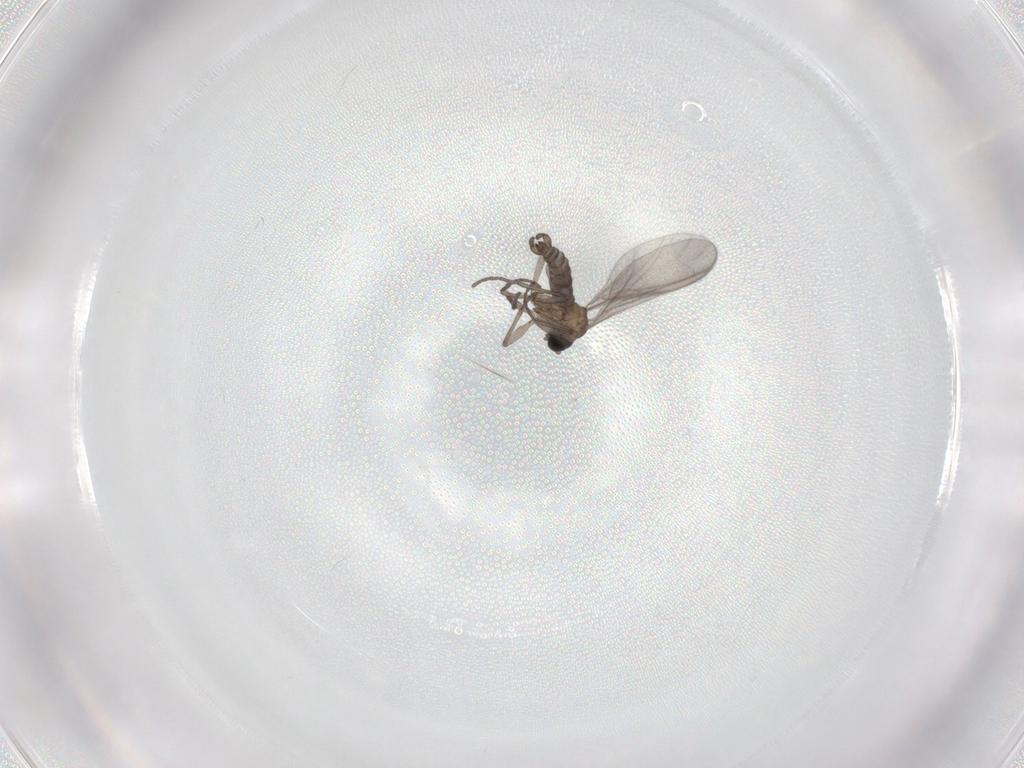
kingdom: Animalia
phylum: Arthropoda
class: Insecta
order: Diptera
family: Sciaridae
